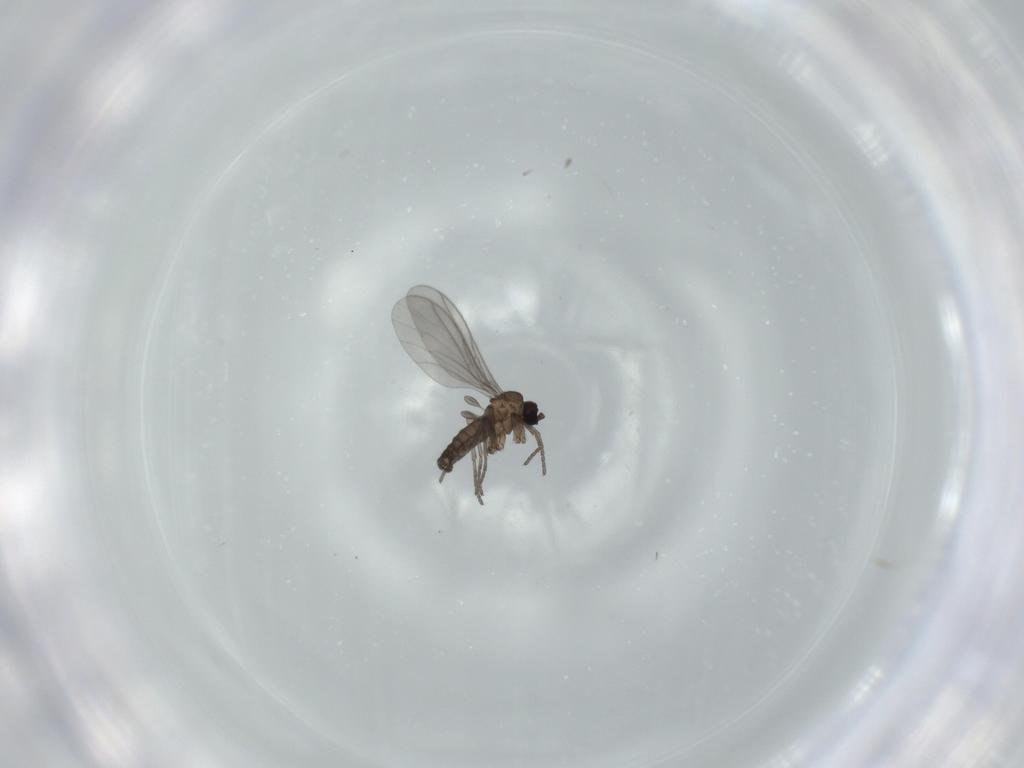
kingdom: Animalia
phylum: Arthropoda
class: Insecta
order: Diptera
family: Sciaridae
